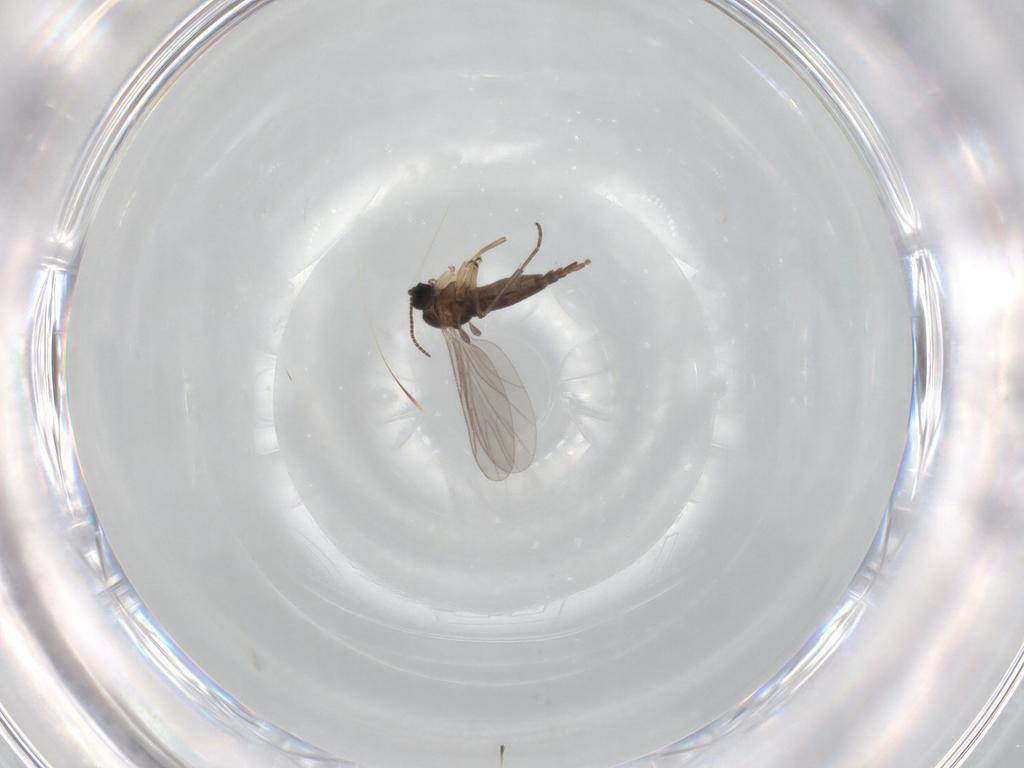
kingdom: Animalia
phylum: Arthropoda
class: Insecta
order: Diptera
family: Sciaridae
